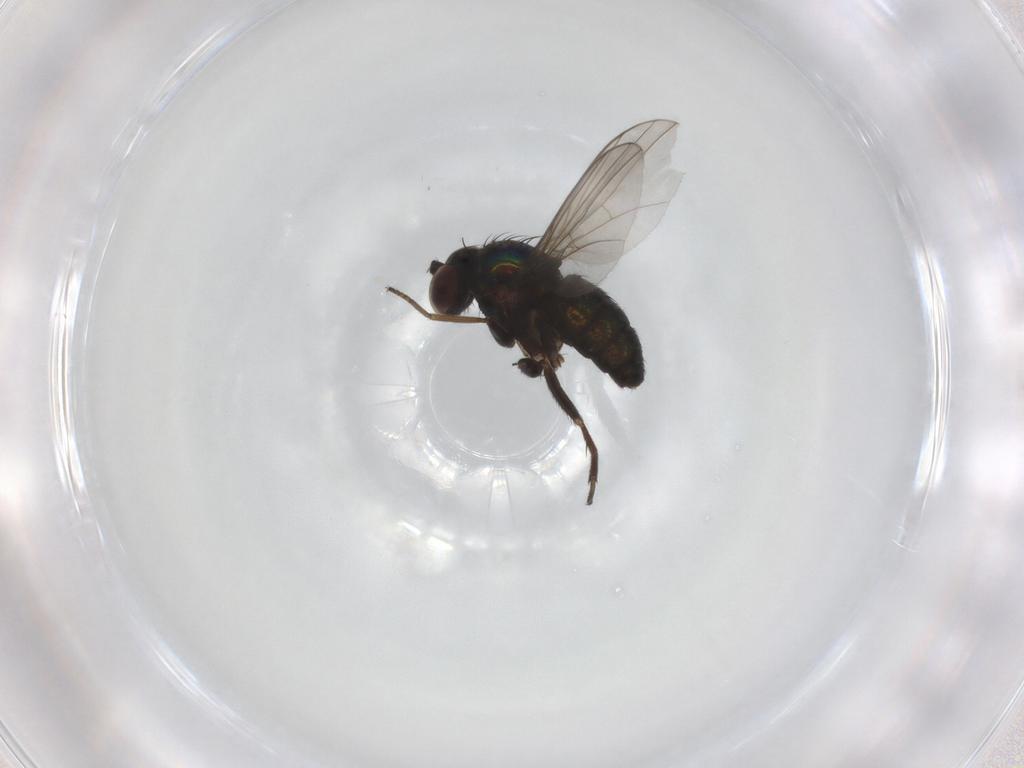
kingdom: Animalia
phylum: Arthropoda
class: Insecta
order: Diptera
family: Dolichopodidae
